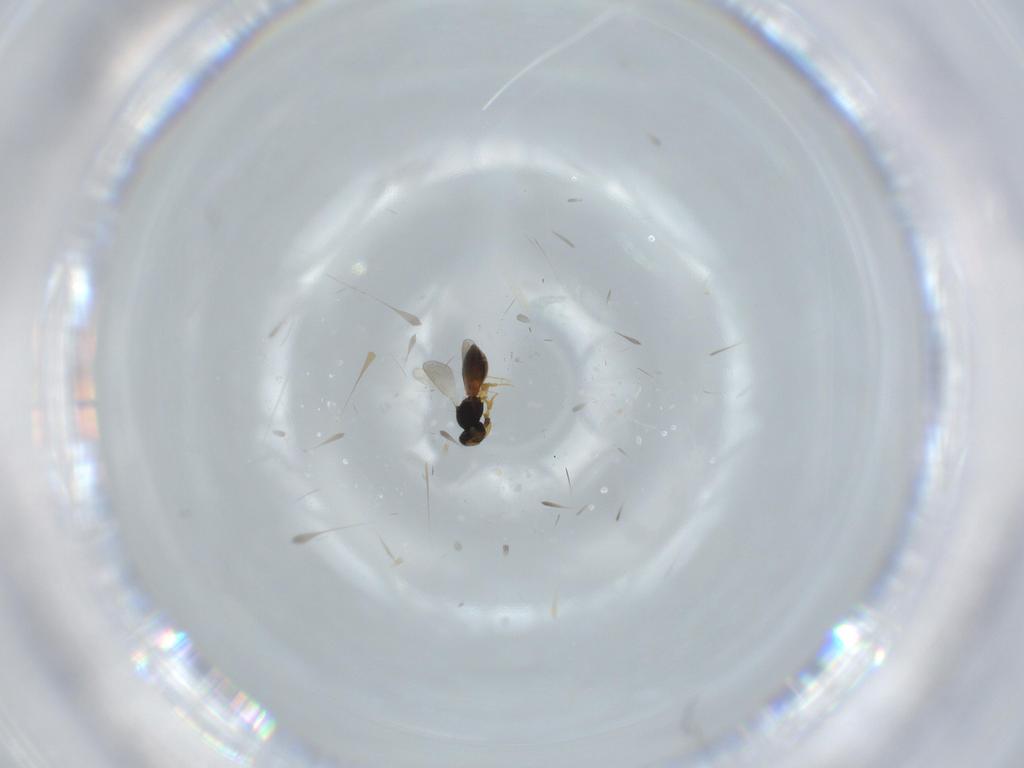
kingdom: Animalia
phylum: Arthropoda
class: Insecta
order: Hymenoptera
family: Platygastridae
